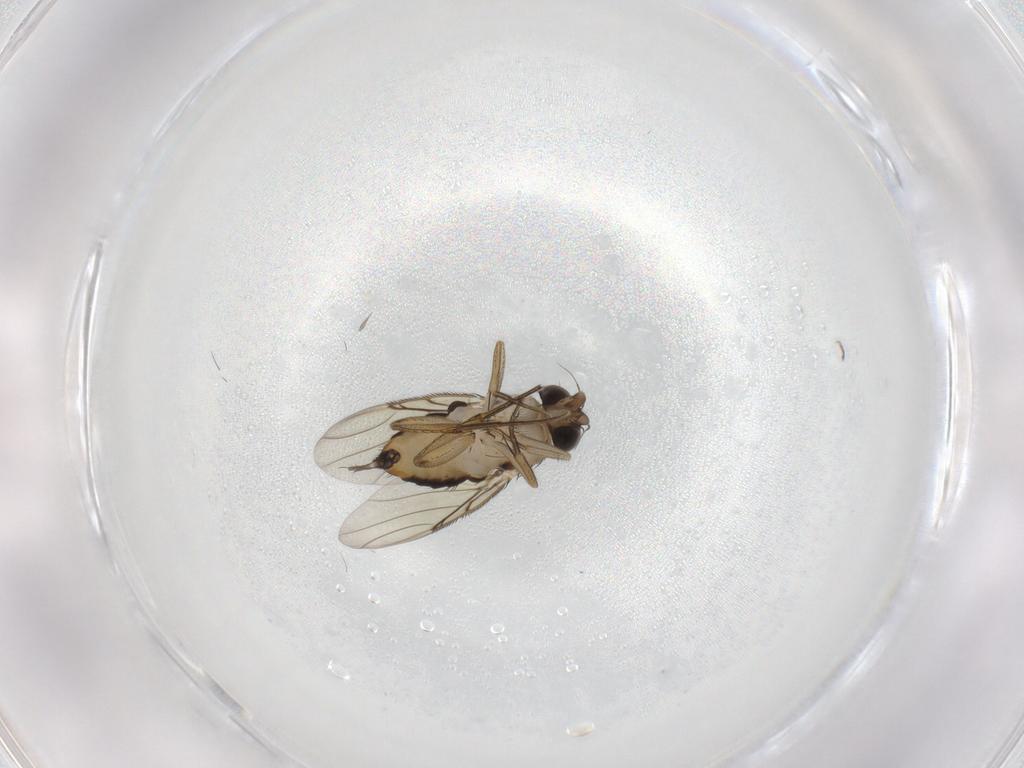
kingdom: Animalia
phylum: Arthropoda
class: Insecta
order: Diptera
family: Phoridae
